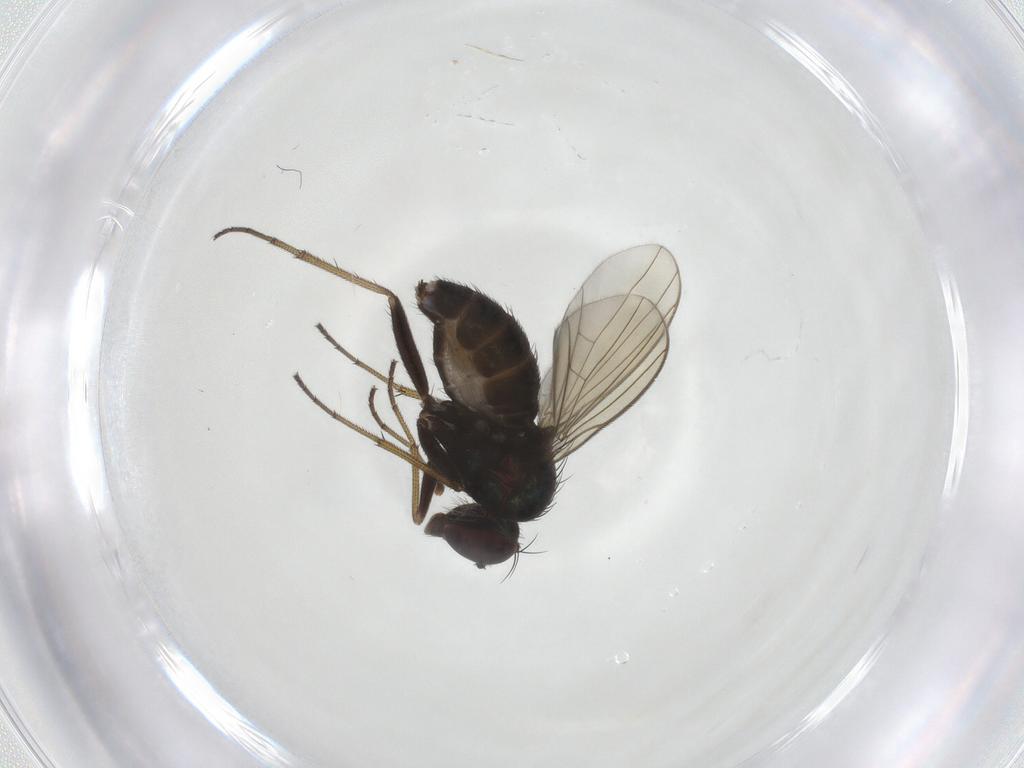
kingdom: Animalia
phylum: Arthropoda
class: Insecta
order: Diptera
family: Dolichopodidae
